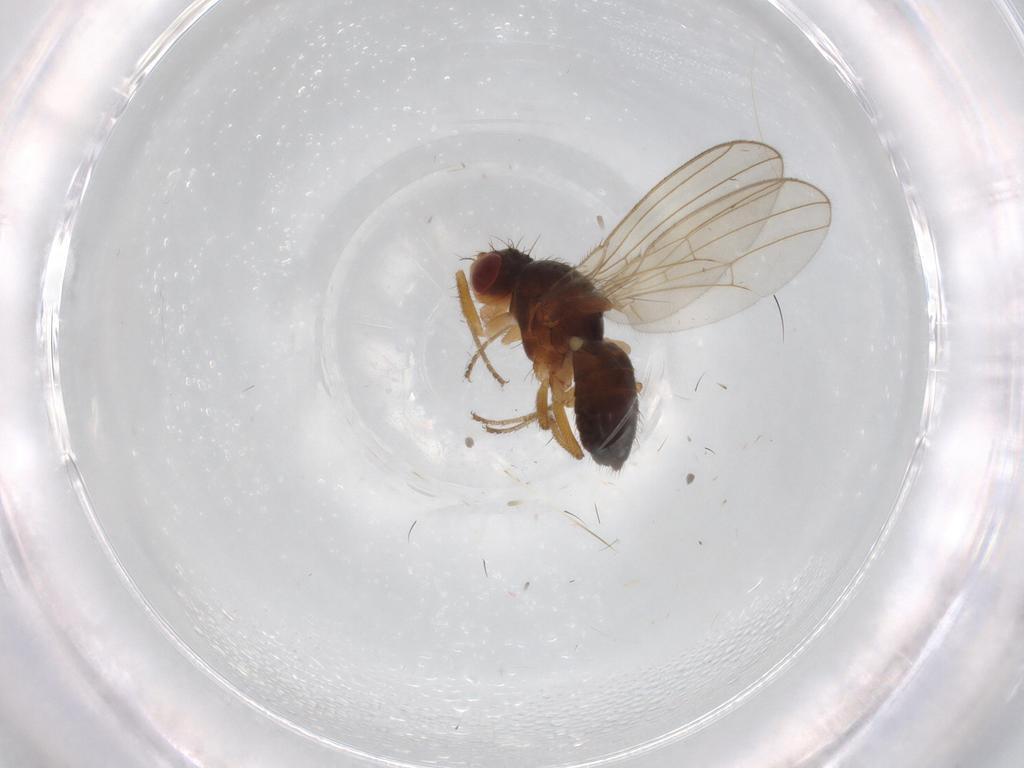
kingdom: Animalia
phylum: Arthropoda
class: Insecta
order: Diptera
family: Drosophilidae
